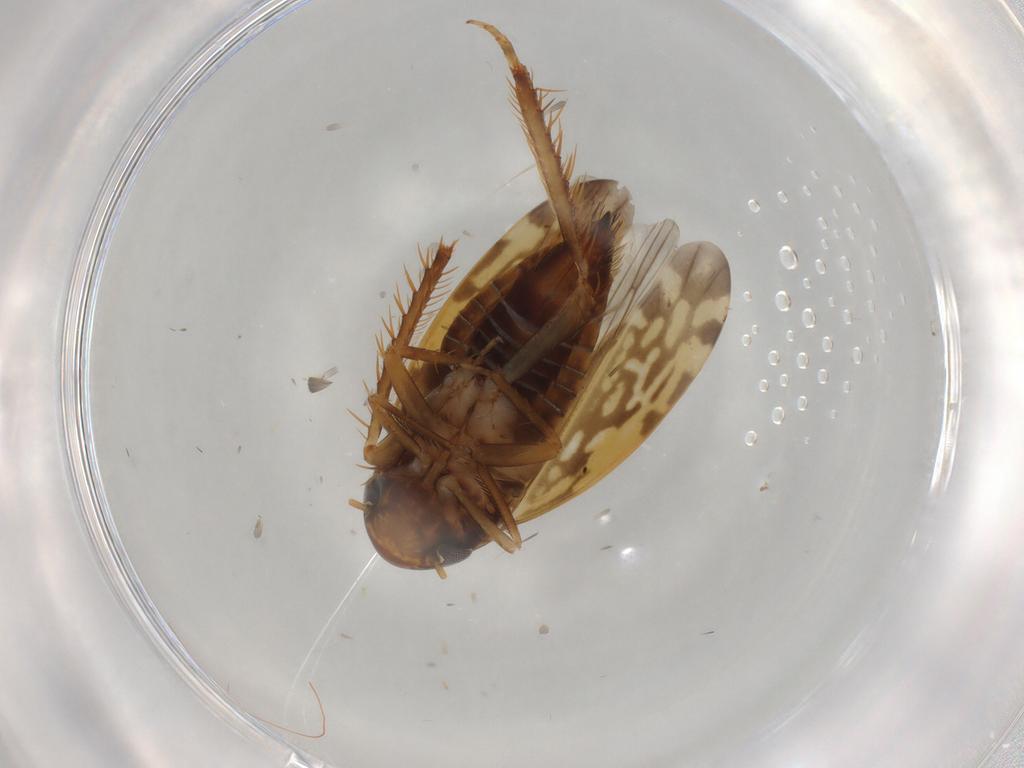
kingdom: Animalia
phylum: Arthropoda
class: Insecta
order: Hemiptera
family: Cicadellidae
